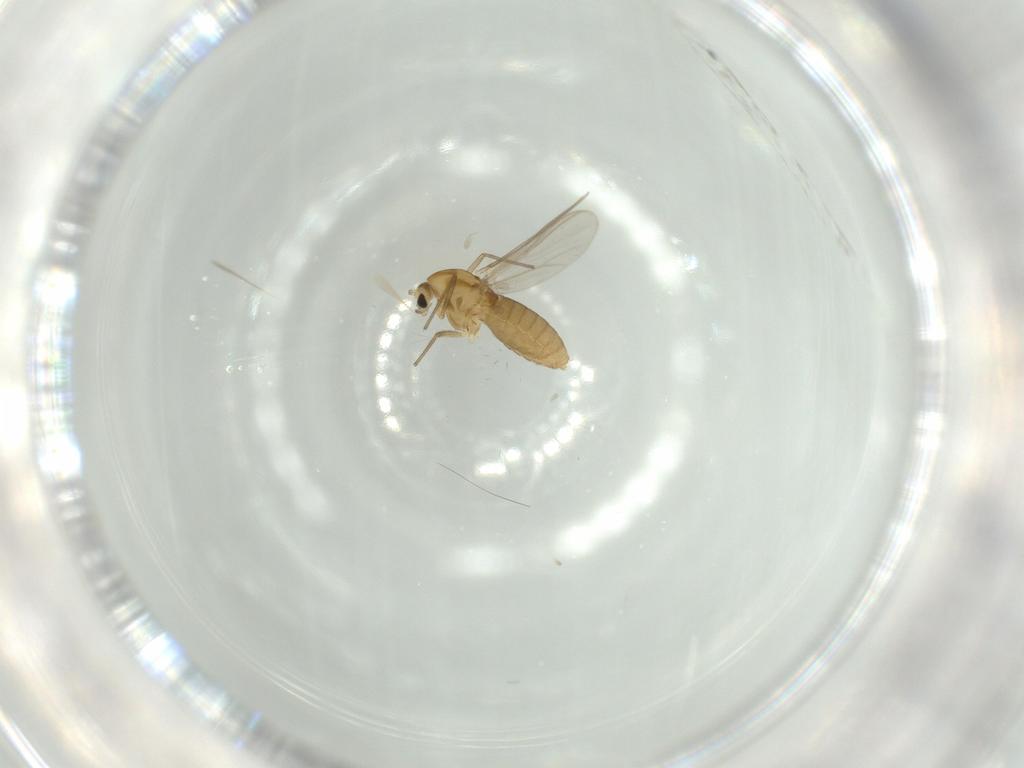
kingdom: Animalia
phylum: Arthropoda
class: Insecta
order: Diptera
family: Chironomidae
